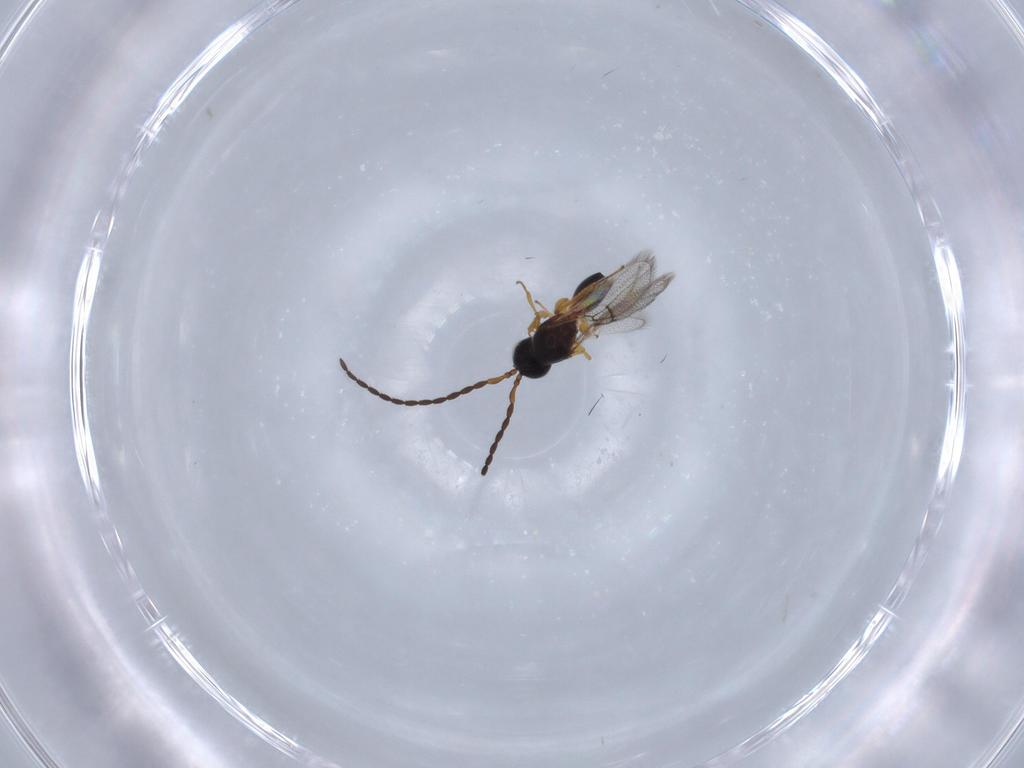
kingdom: Animalia
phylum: Arthropoda
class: Insecta
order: Hymenoptera
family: Figitidae
